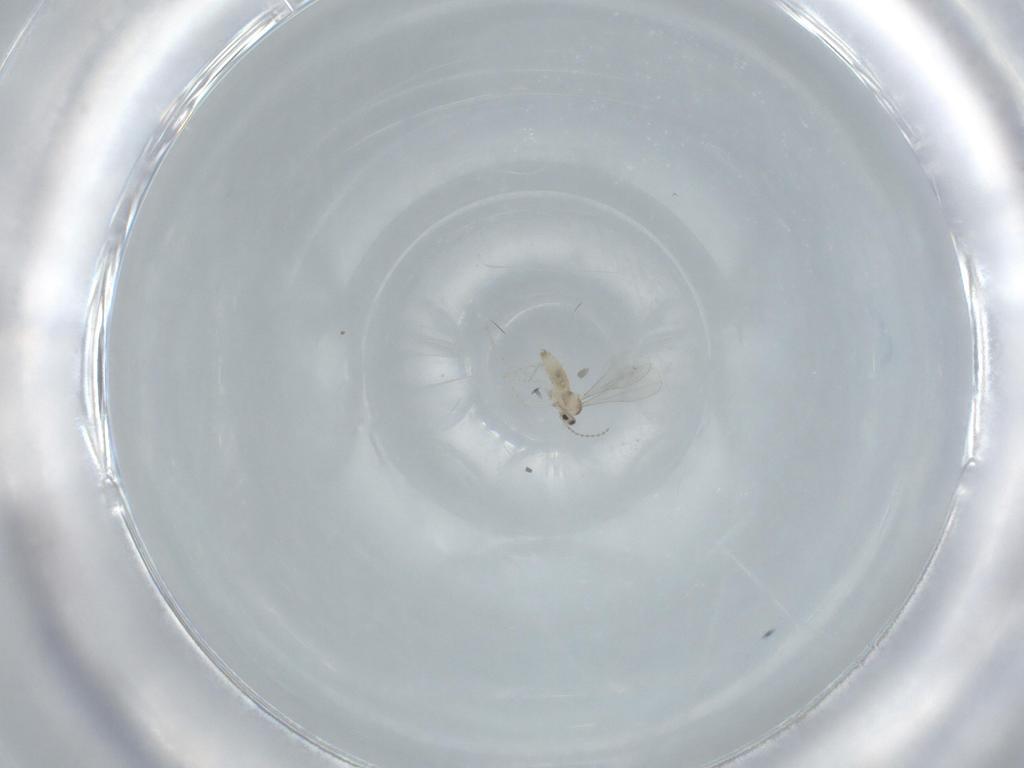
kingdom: Animalia
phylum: Arthropoda
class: Insecta
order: Diptera
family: Cecidomyiidae
